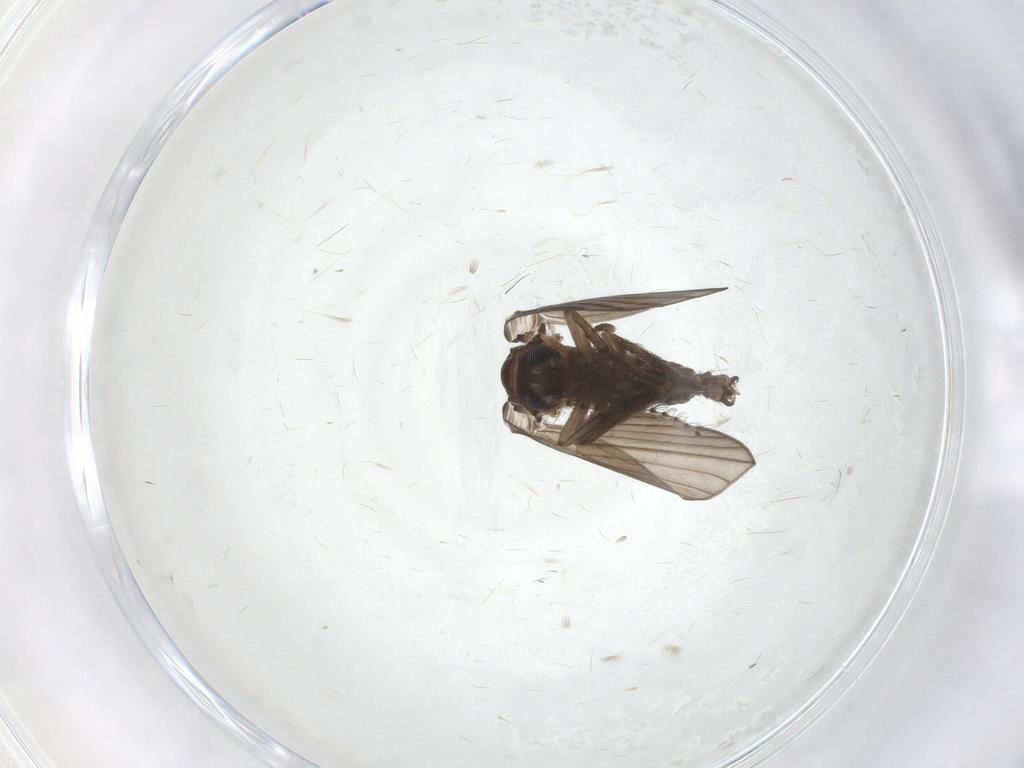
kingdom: Animalia
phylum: Arthropoda
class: Insecta
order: Diptera
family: Psychodidae
